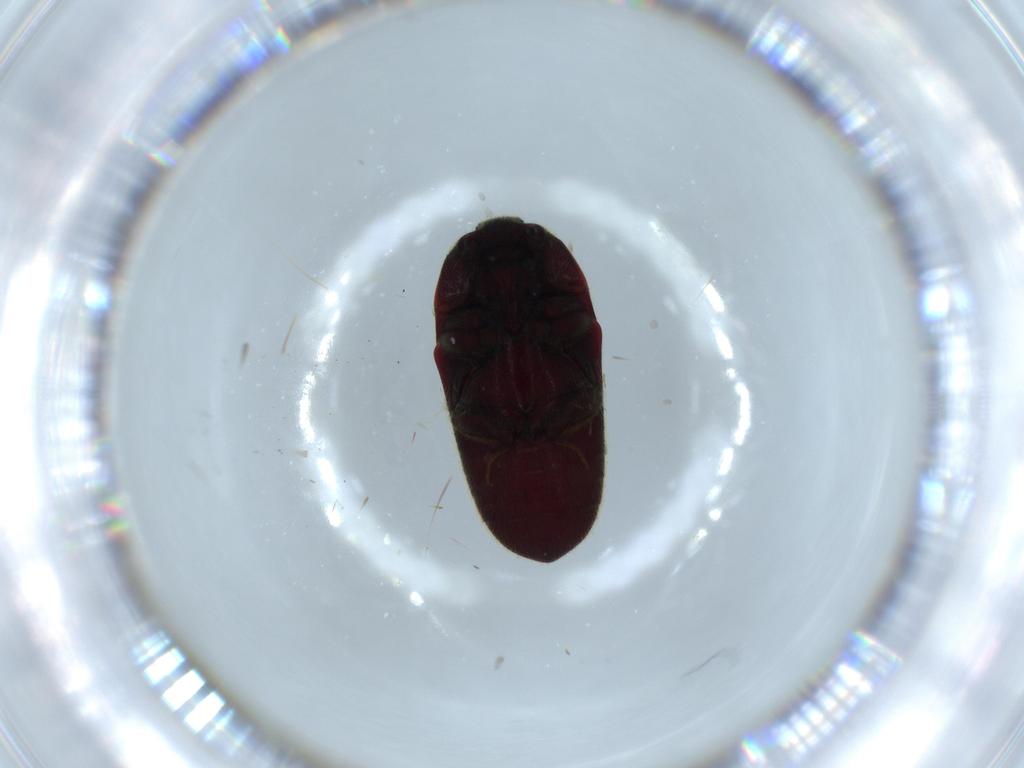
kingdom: Animalia
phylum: Arthropoda
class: Insecta
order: Coleoptera
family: Throscidae
